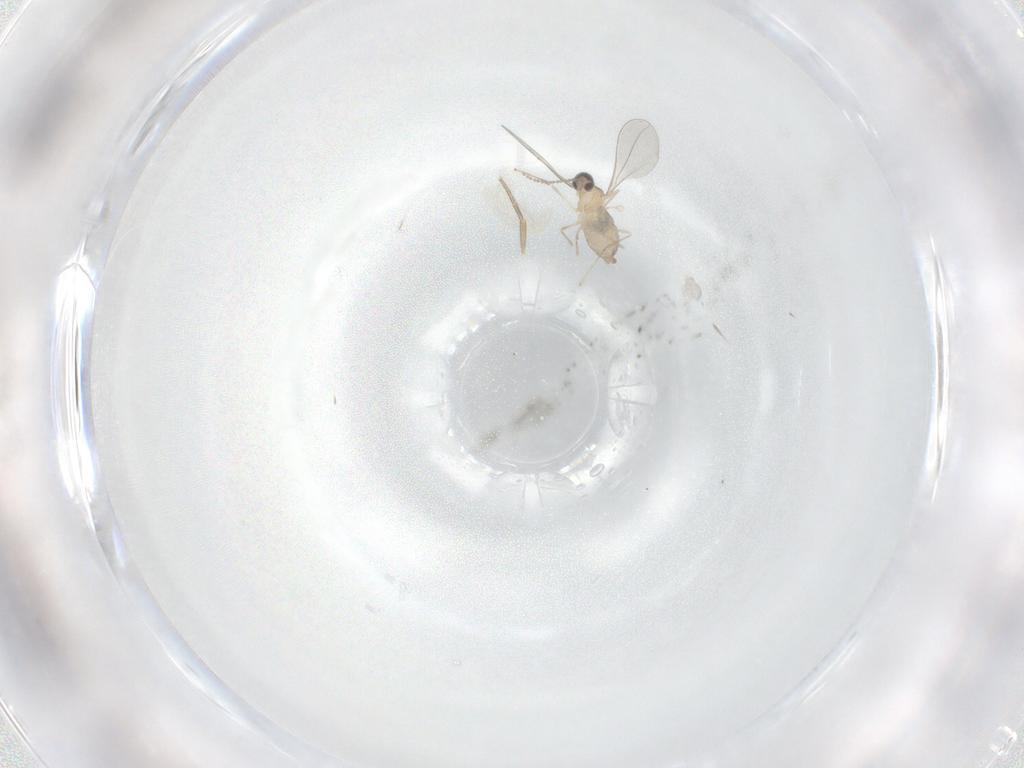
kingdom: Animalia
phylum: Arthropoda
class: Insecta
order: Diptera
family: Cecidomyiidae
